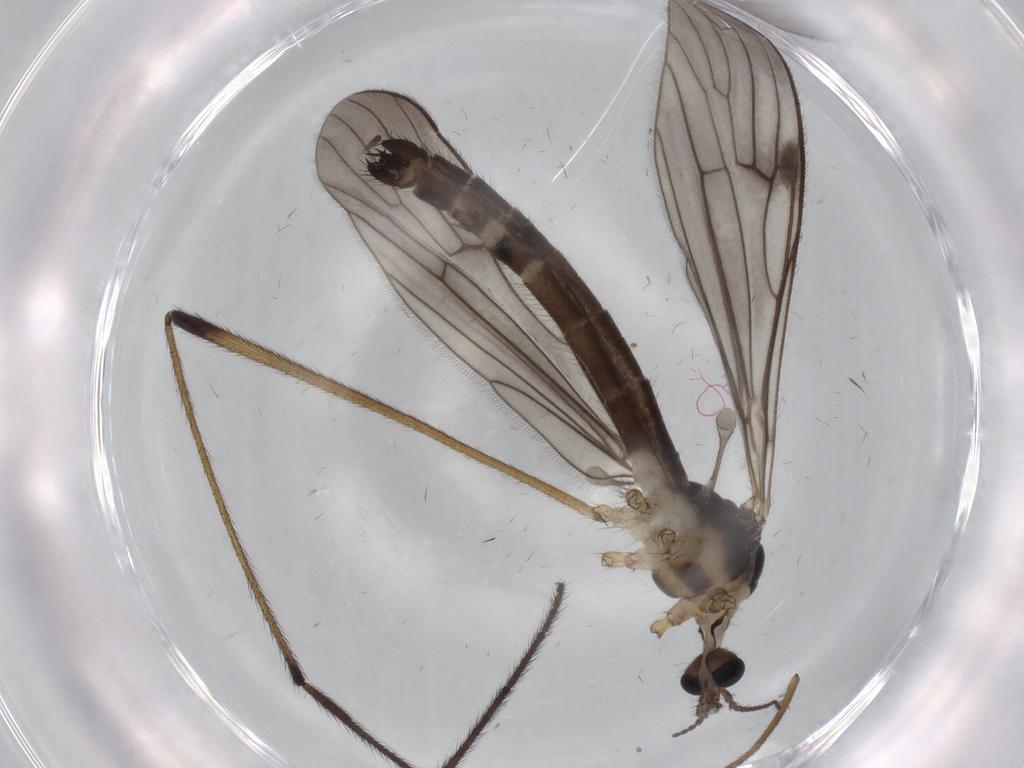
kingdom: Animalia
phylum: Arthropoda
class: Insecta
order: Diptera
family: Limoniidae
